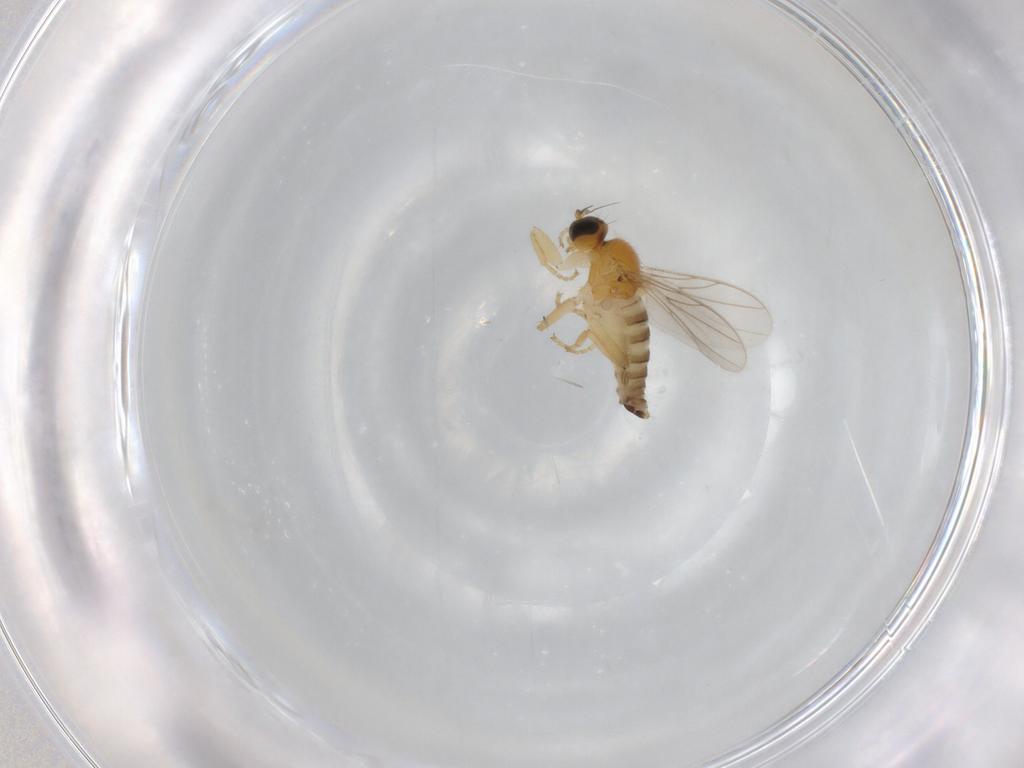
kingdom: Animalia
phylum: Arthropoda
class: Insecta
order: Diptera
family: Hybotidae
